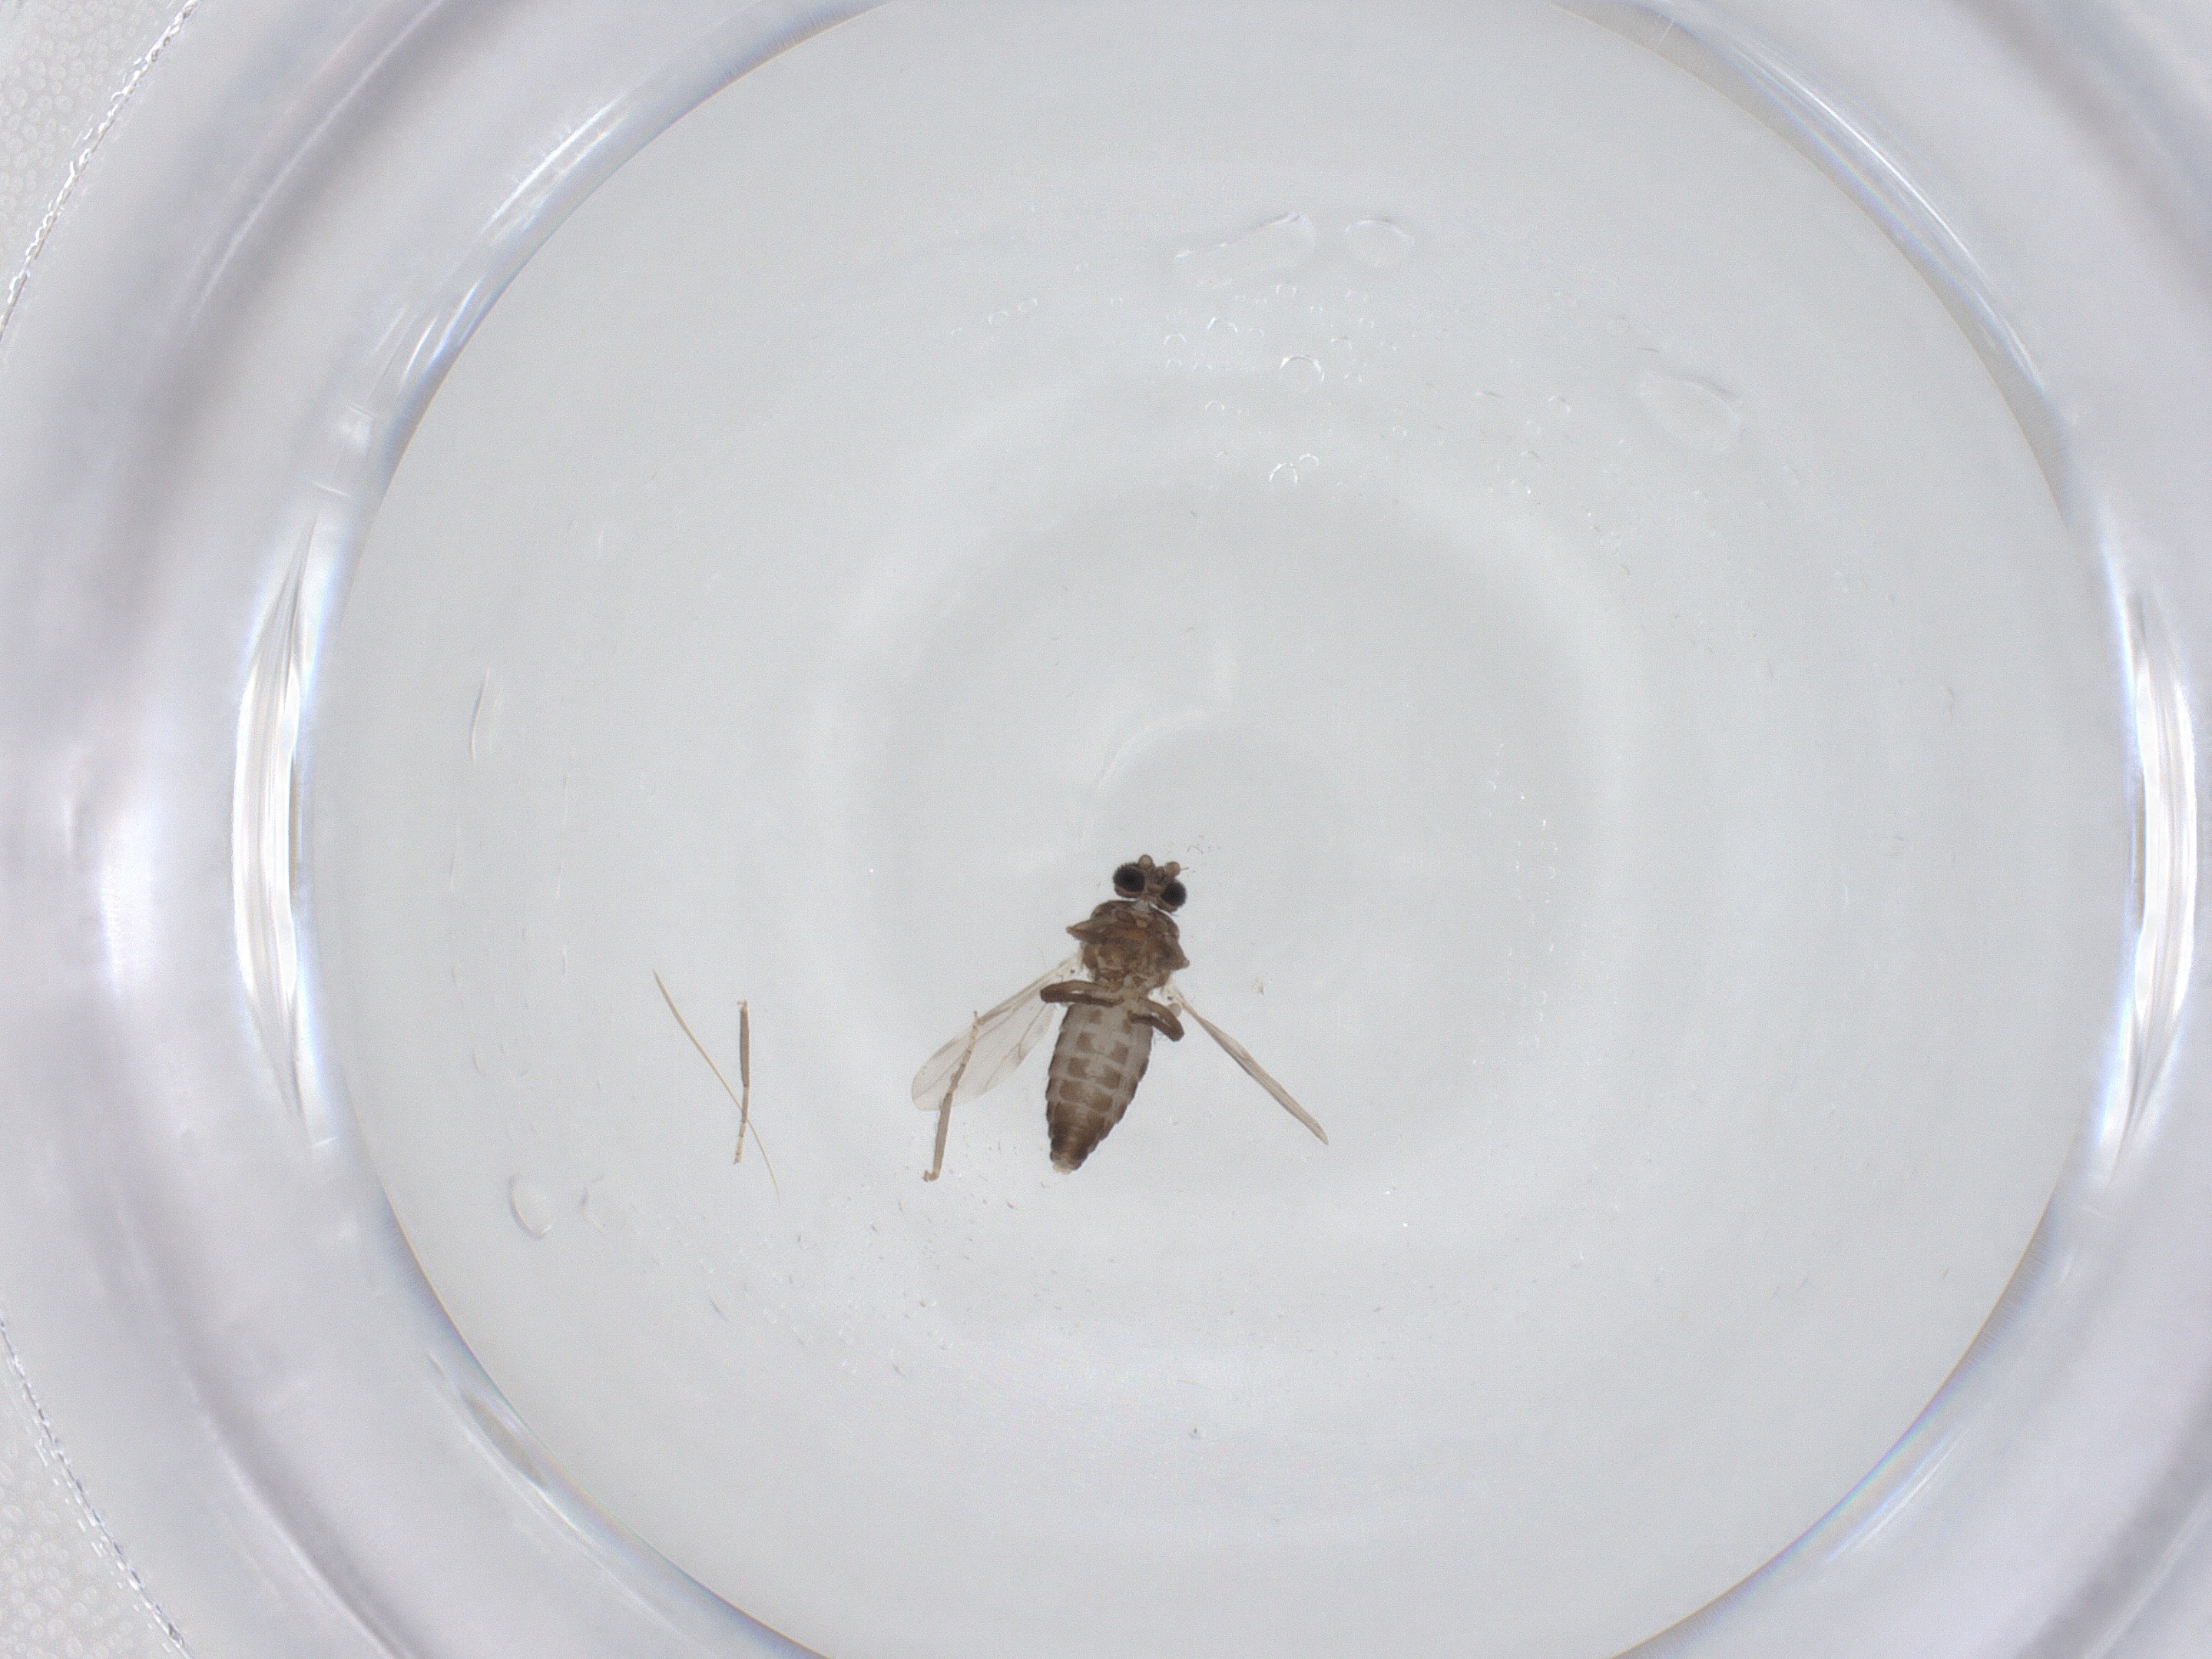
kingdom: Animalia
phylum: Arthropoda
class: Insecta
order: Diptera
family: Ceratopogonidae
